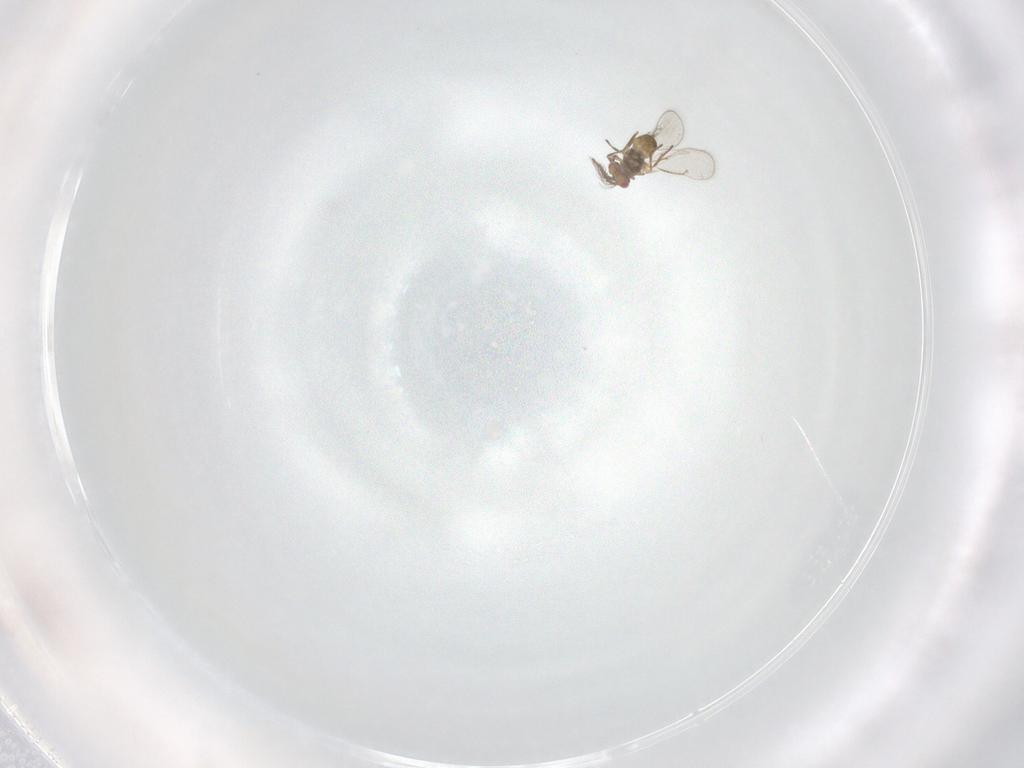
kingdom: Animalia
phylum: Arthropoda
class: Insecta
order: Hymenoptera
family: Eulophidae
